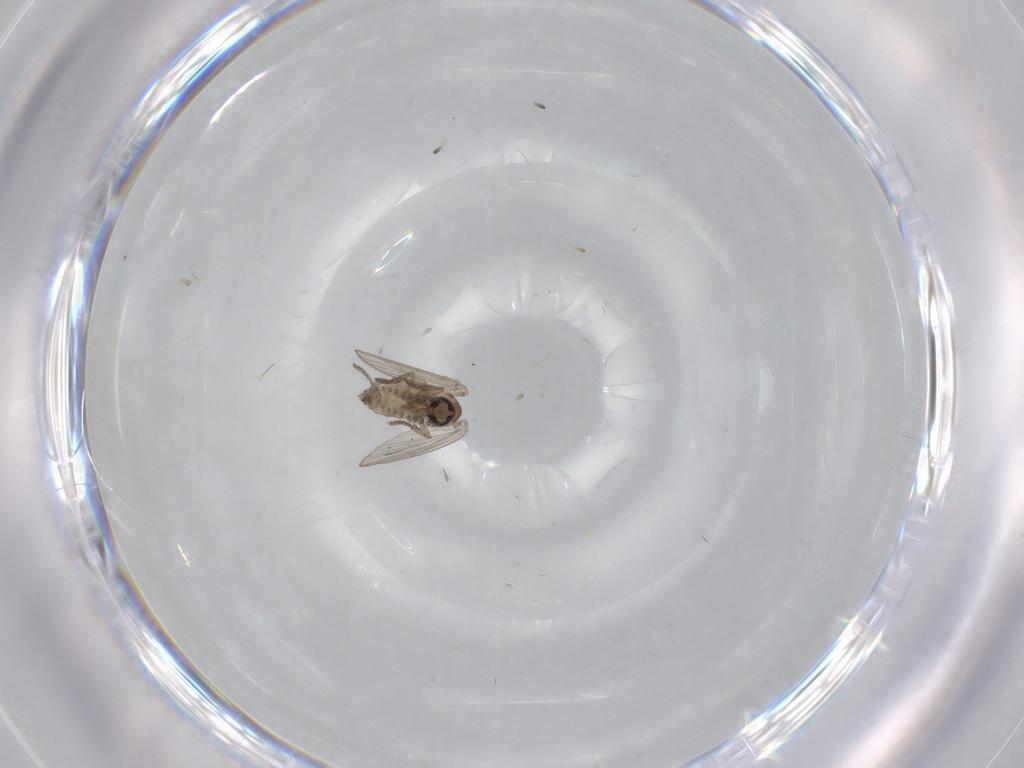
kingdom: Animalia
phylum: Arthropoda
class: Insecta
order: Diptera
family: Psychodidae
